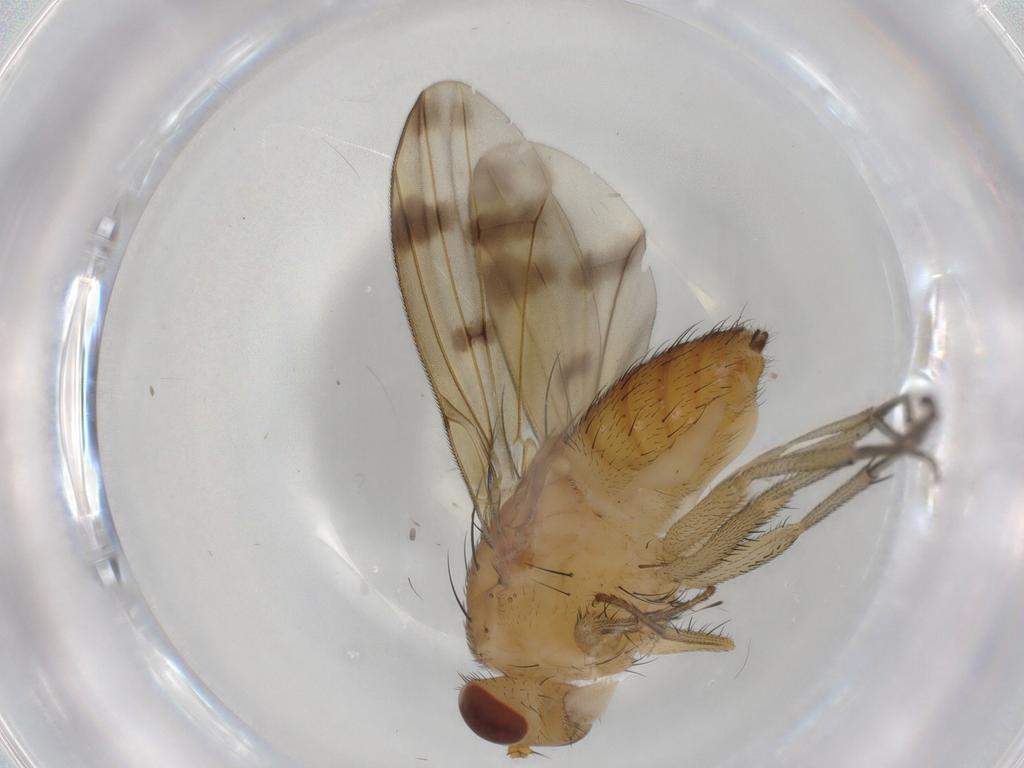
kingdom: Animalia
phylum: Arthropoda
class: Insecta
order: Diptera
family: Lauxaniidae
